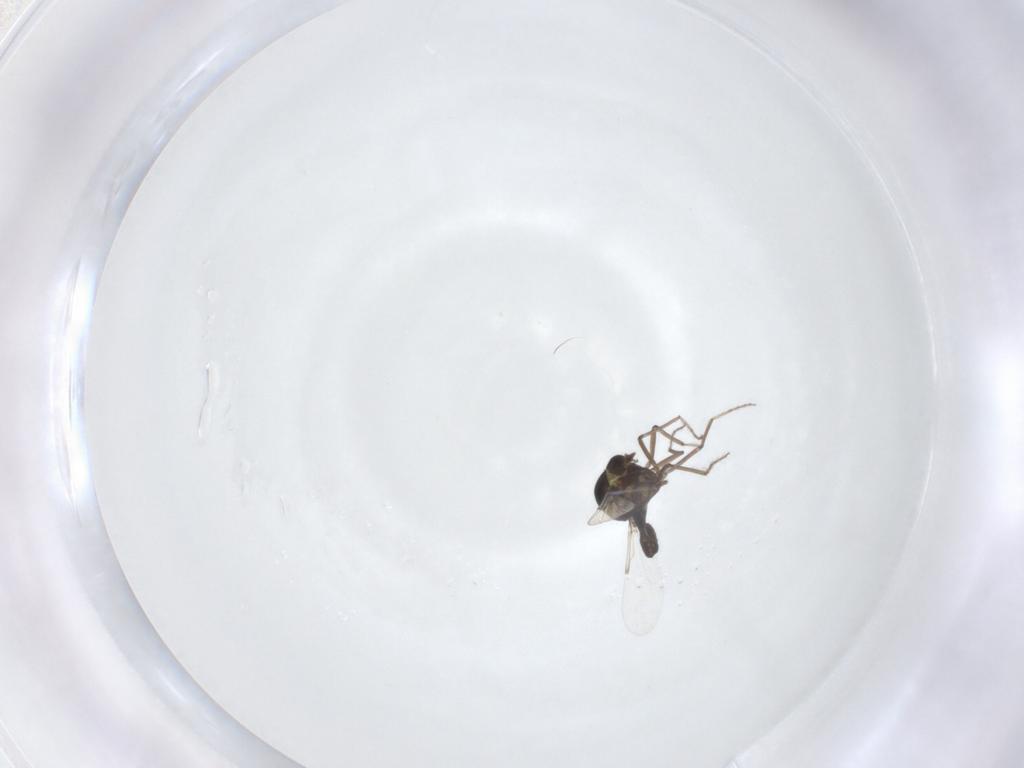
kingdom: Animalia
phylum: Arthropoda
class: Insecta
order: Diptera
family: Ceratopogonidae
